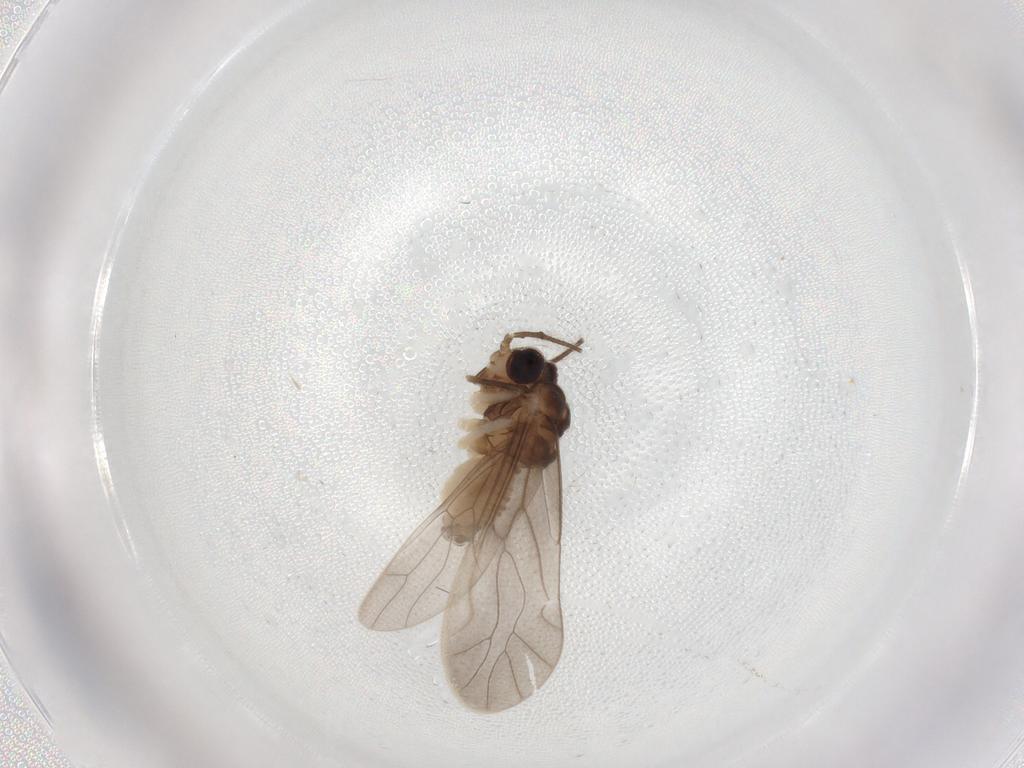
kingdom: Animalia
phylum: Arthropoda
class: Insecta
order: Psocodea
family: Caeciliusidae
